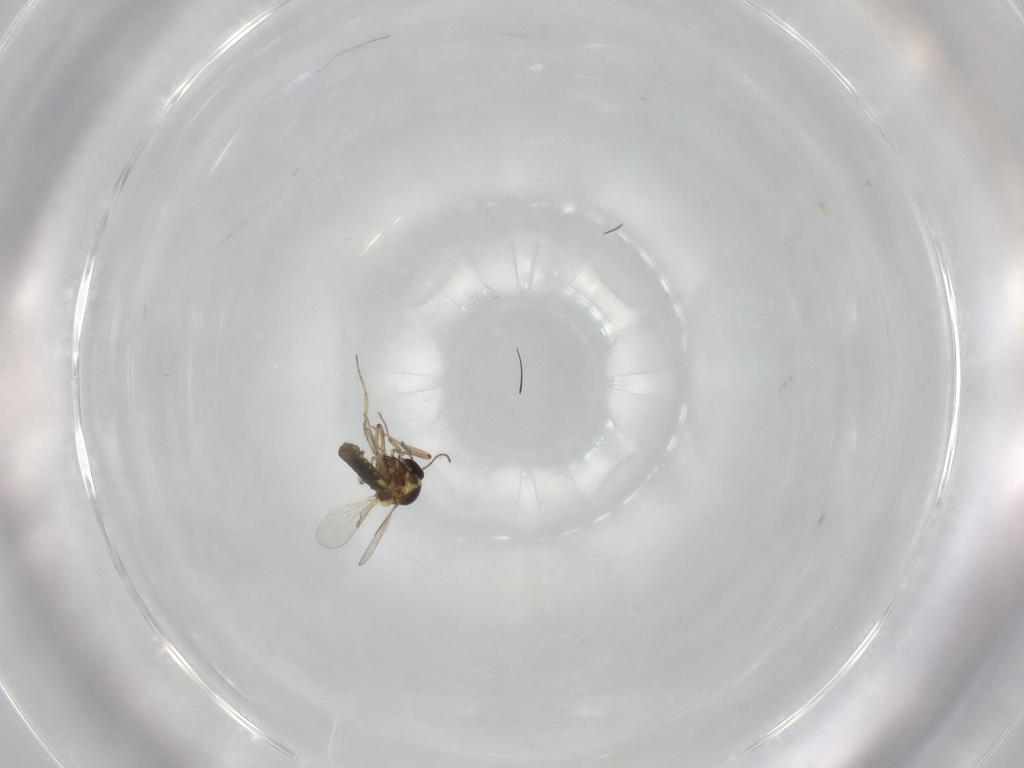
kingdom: Animalia
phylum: Arthropoda
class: Insecta
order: Diptera
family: Ceratopogonidae
